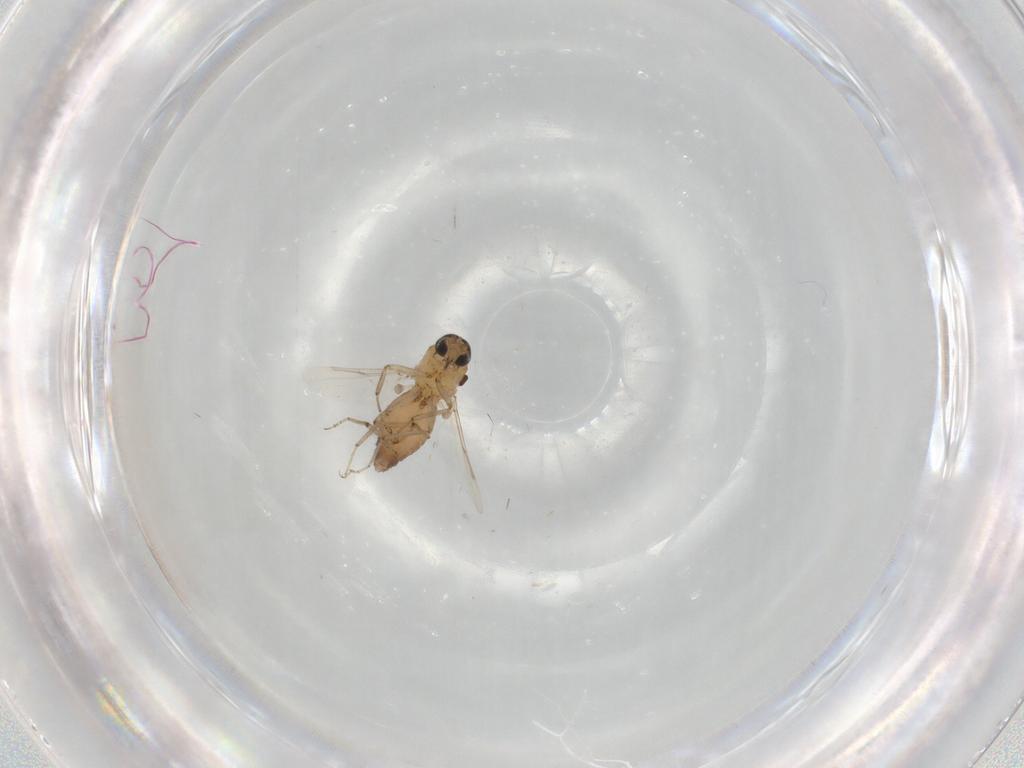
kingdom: Animalia
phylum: Arthropoda
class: Insecta
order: Diptera
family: Ceratopogonidae
